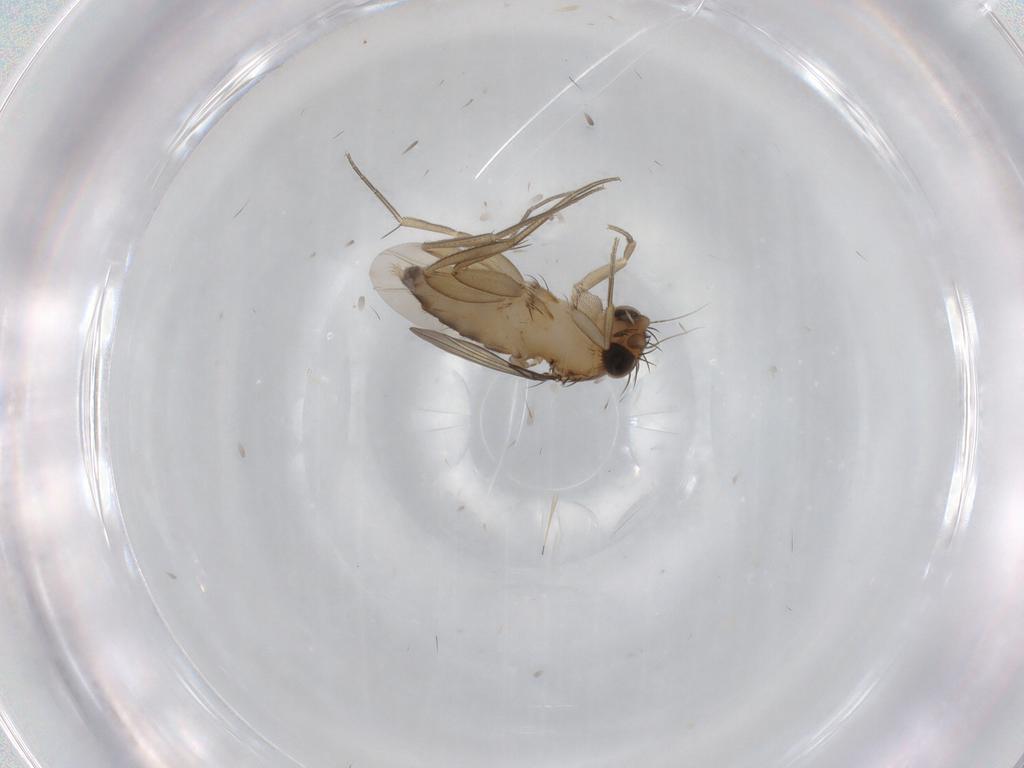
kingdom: Animalia
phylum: Arthropoda
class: Insecta
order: Diptera
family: Phoridae
